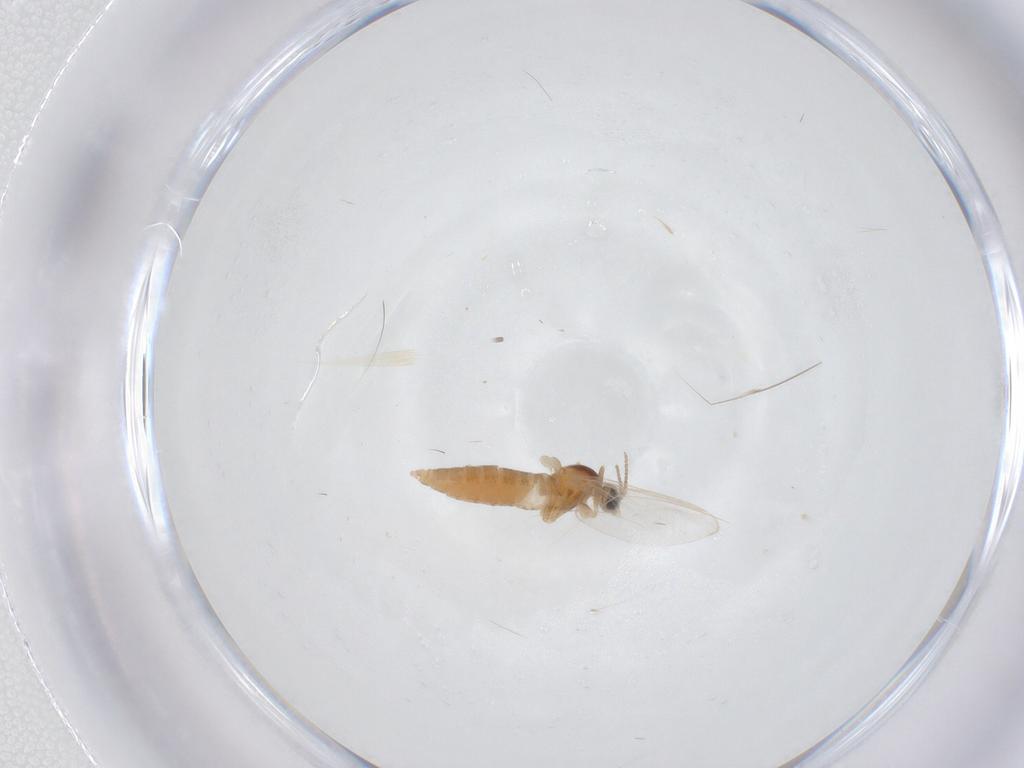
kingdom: Animalia
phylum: Arthropoda
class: Insecta
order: Diptera
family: Cecidomyiidae
